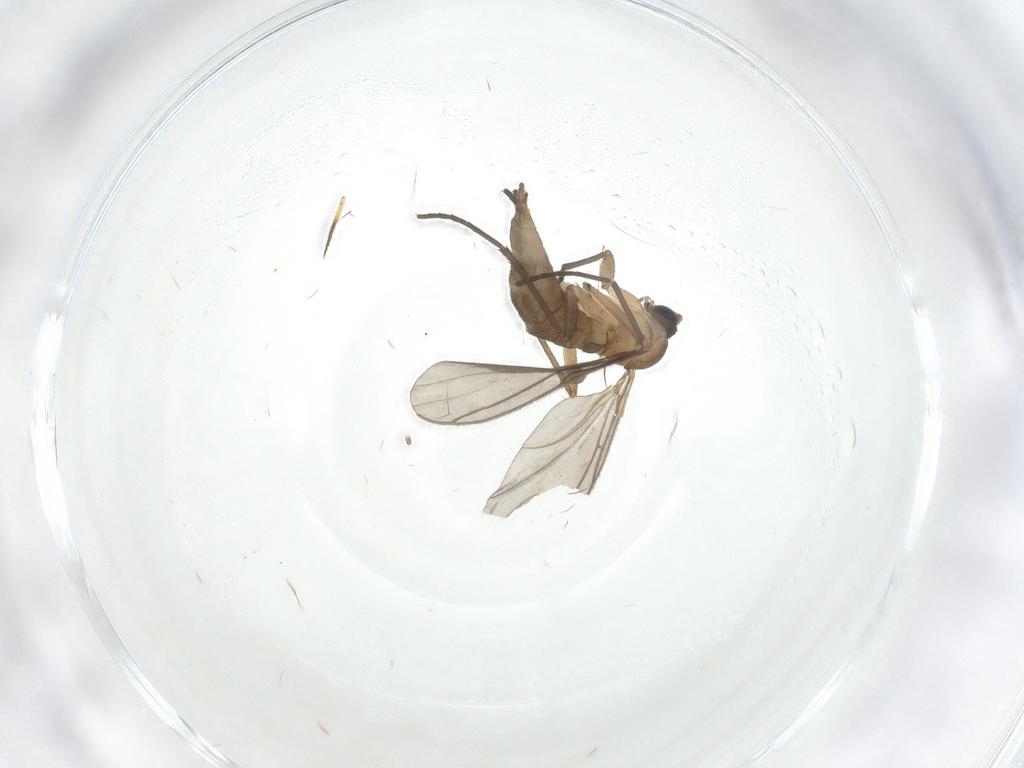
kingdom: Animalia
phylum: Arthropoda
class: Insecta
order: Diptera
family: Sciaridae
